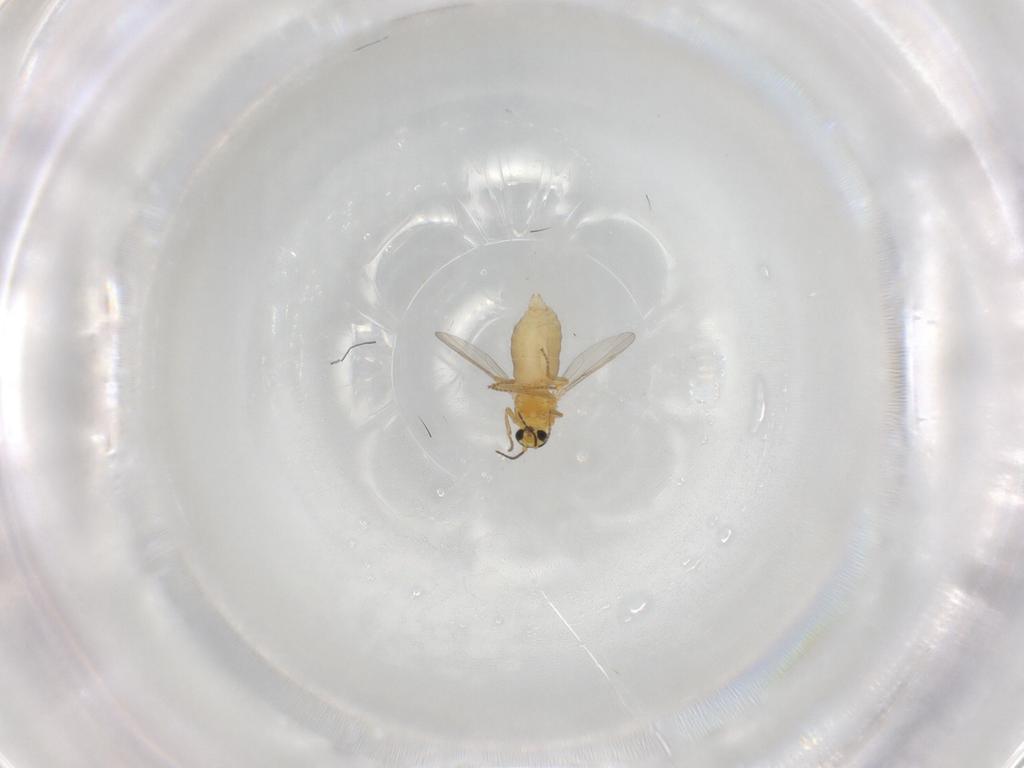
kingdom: Animalia
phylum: Arthropoda
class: Insecta
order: Diptera
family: Ceratopogonidae
